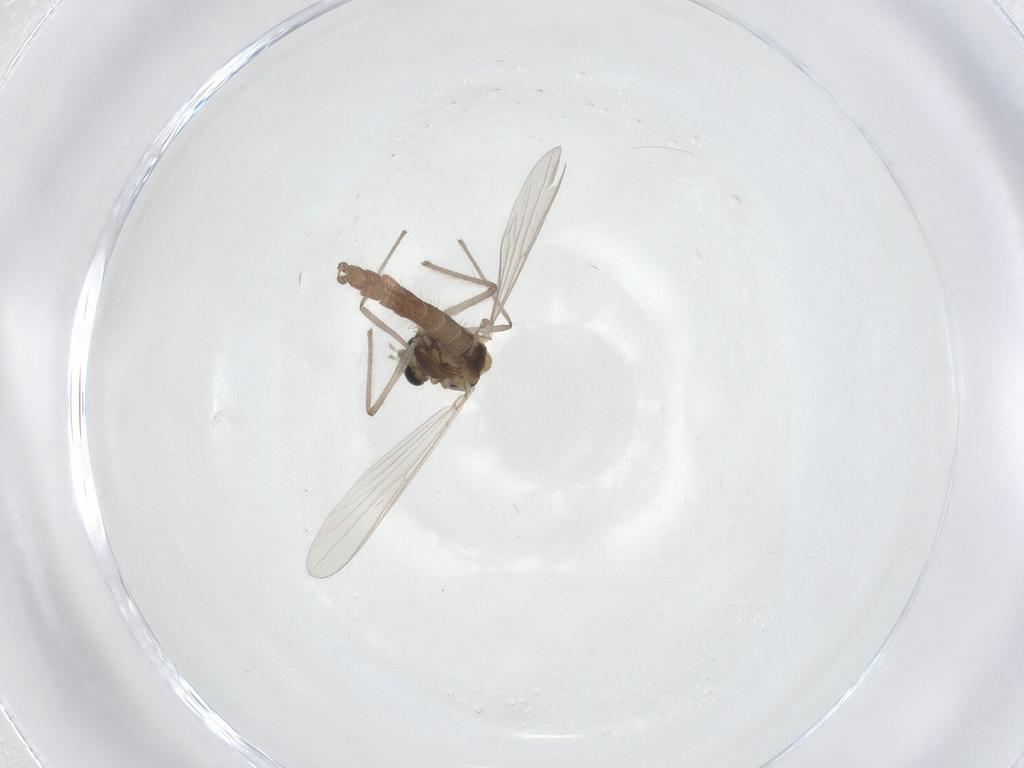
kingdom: Animalia
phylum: Arthropoda
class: Insecta
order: Diptera
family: Chironomidae
